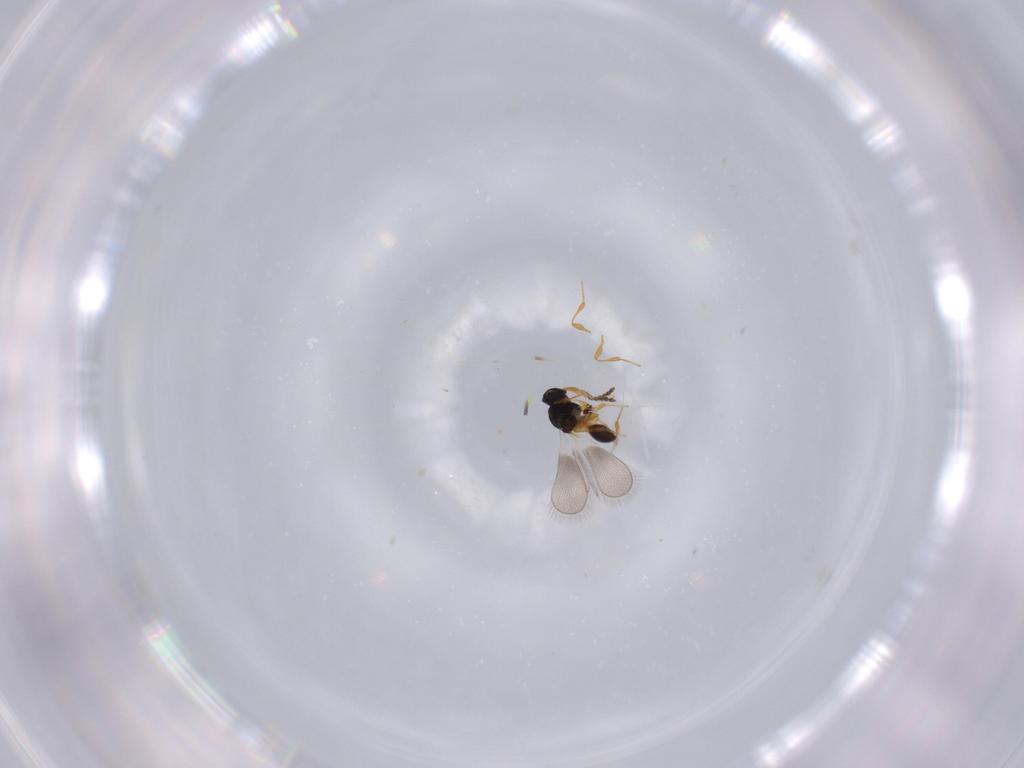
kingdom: Animalia
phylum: Arthropoda
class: Insecta
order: Hymenoptera
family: Platygastridae
